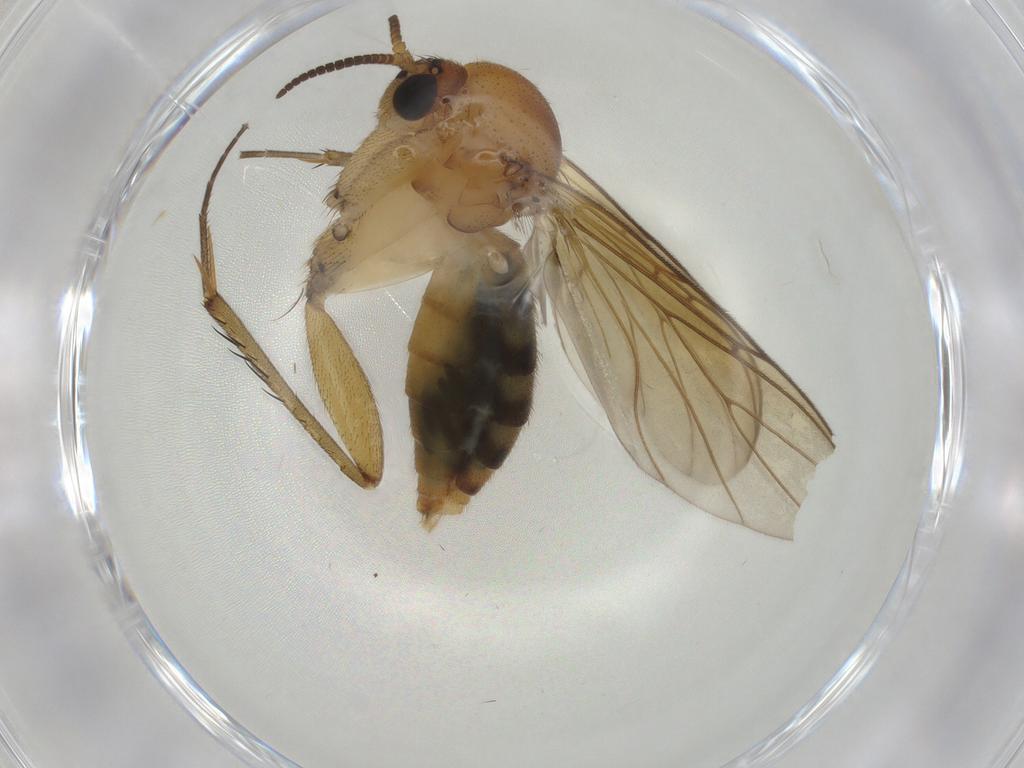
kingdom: Animalia
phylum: Arthropoda
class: Insecta
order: Diptera
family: Mycetophilidae
